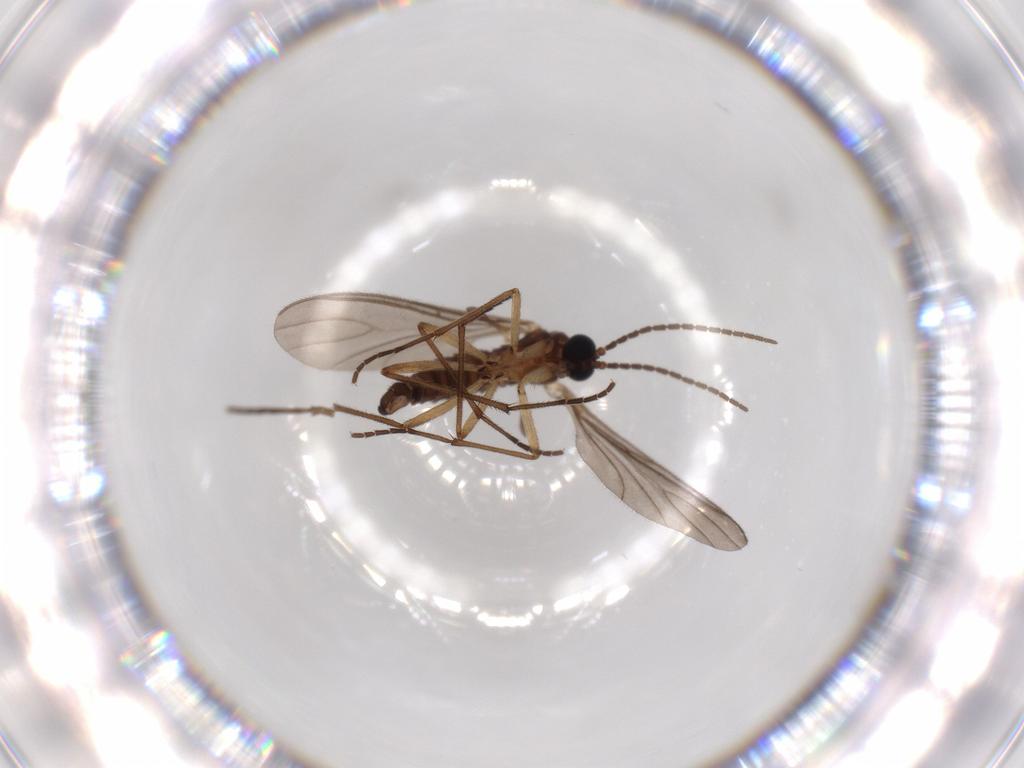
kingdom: Animalia
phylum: Arthropoda
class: Insecta
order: Diptera
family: Sciaridae
